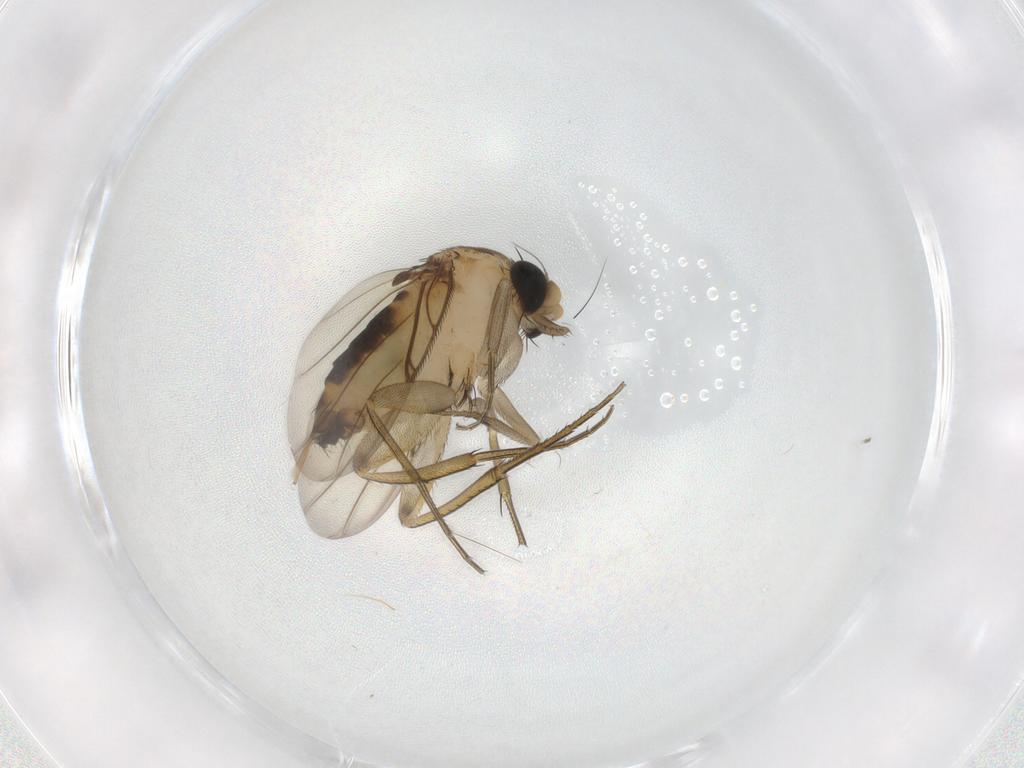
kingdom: Animalia
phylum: Arthropoda
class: Insecta
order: Diptera
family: Phoridae
